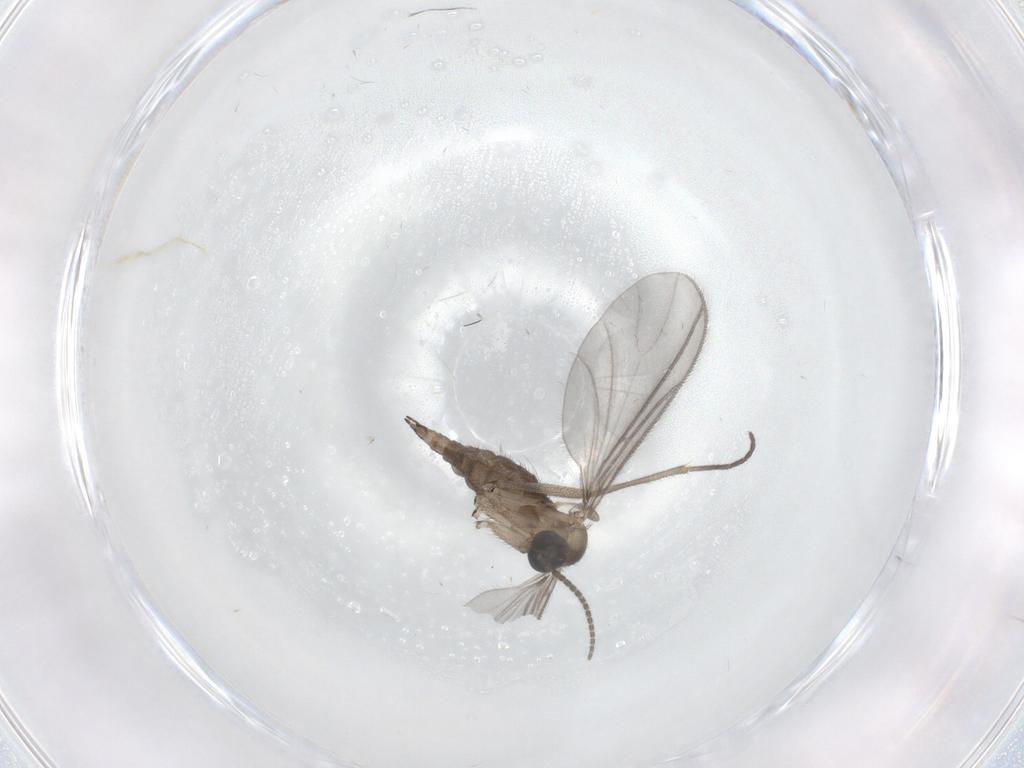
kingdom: Animalia
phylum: Arthropoda
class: Insecta
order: Diptera
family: Sciaridae
